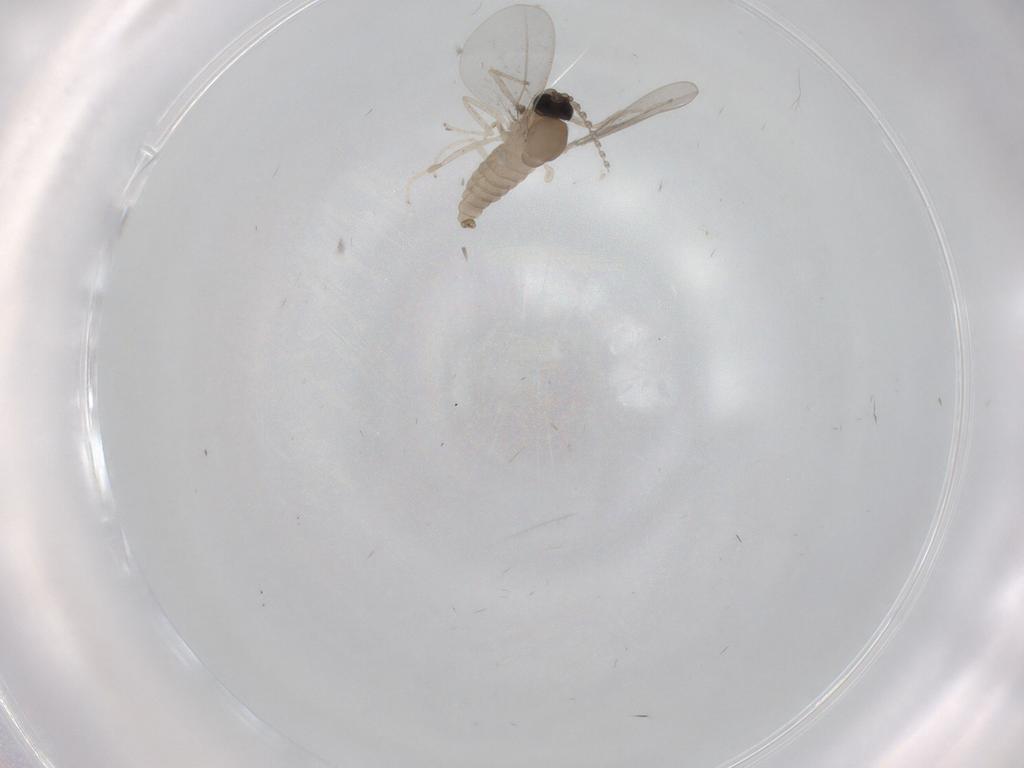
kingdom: Animalia
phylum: Arthropoda
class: Insecta
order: Diptera
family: Cecidomyiidae
